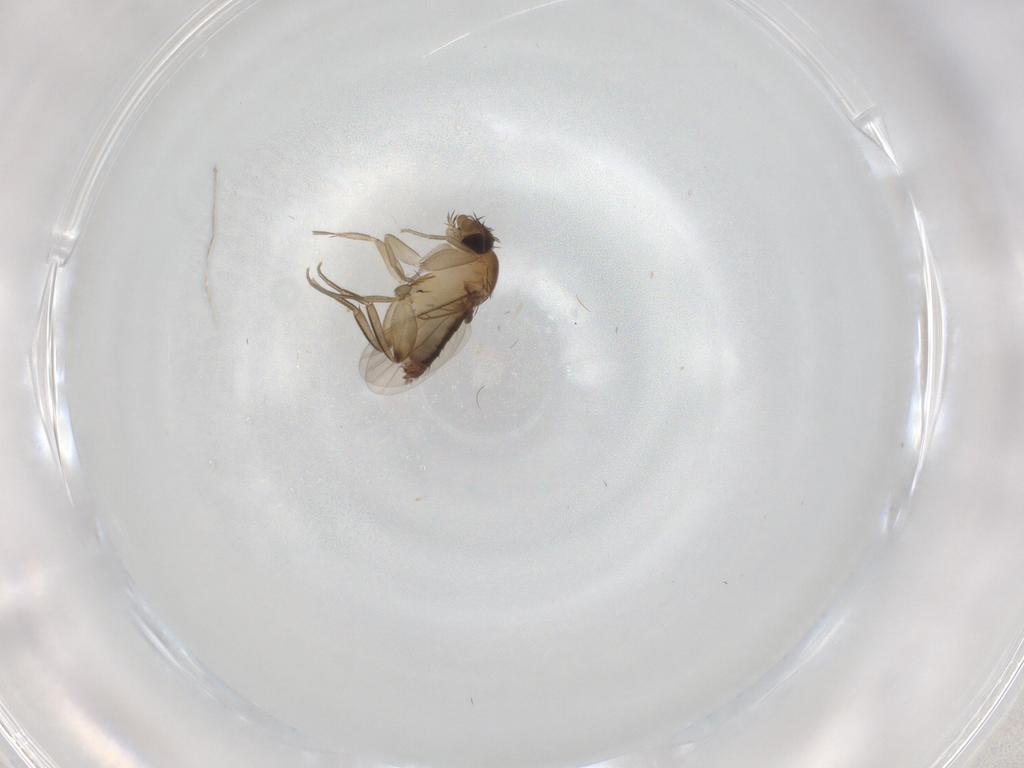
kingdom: Animalia
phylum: Arthropoda
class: Insecta
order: Diptera
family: Phoridae
